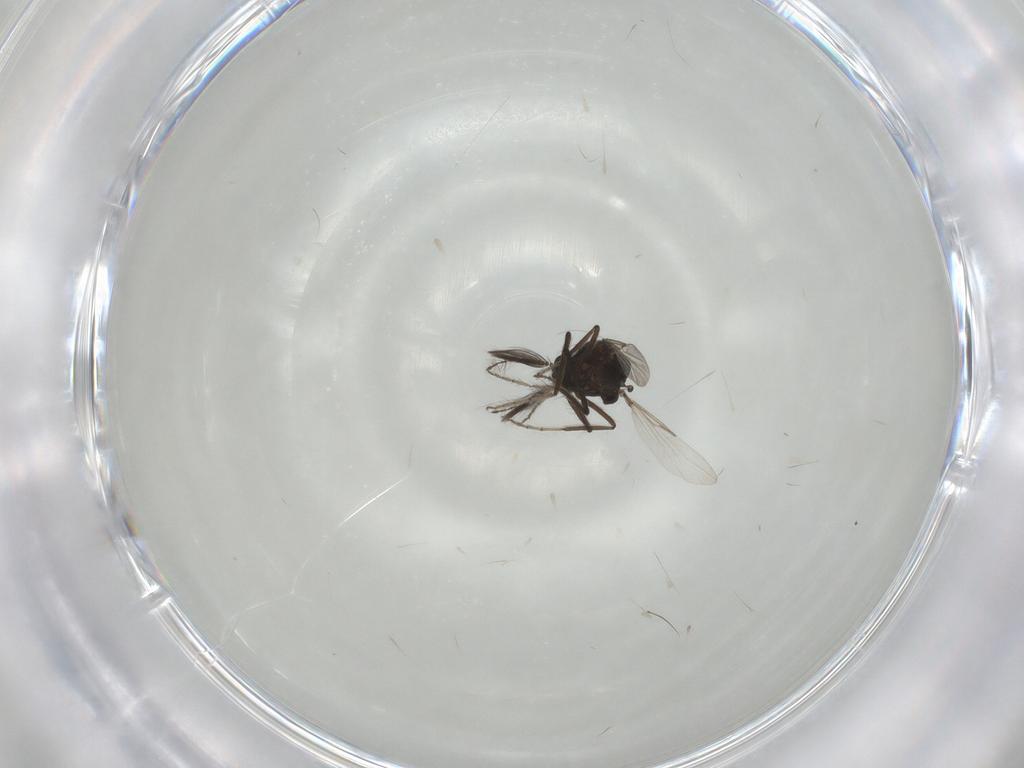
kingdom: Animalia
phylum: Arthropoda
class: Insecta
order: Diptera
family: Ceratopogonidae
